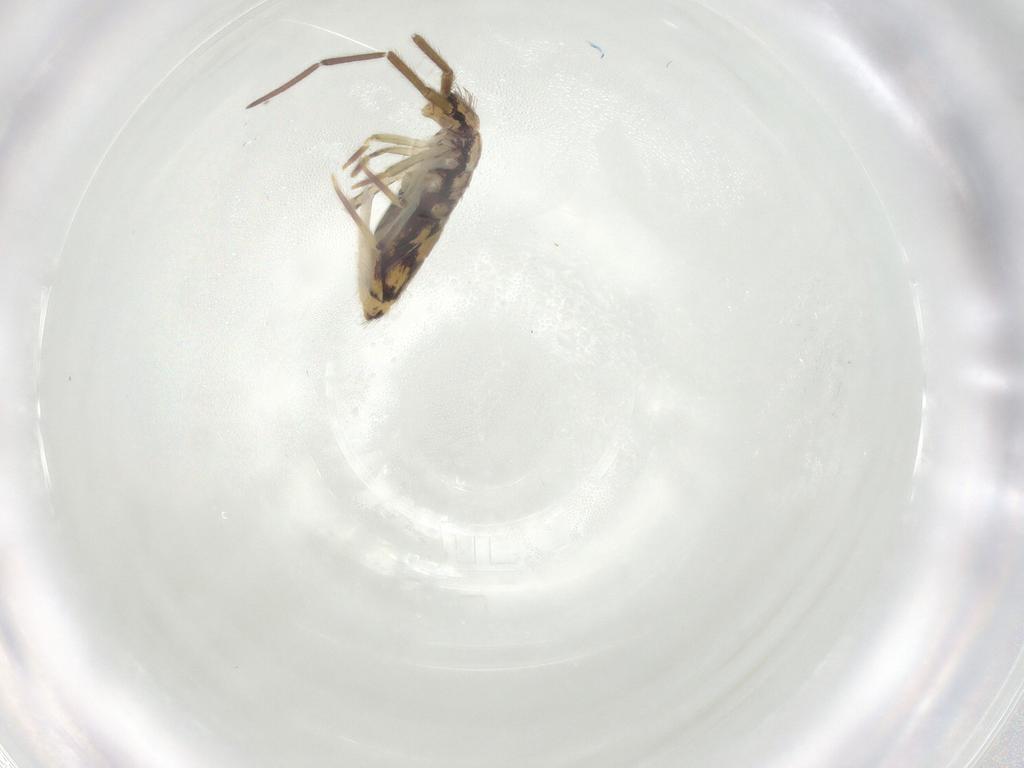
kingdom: Animalia
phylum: Arthropoda
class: Collembola
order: Entomobryomorpha
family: Entomobryidae
